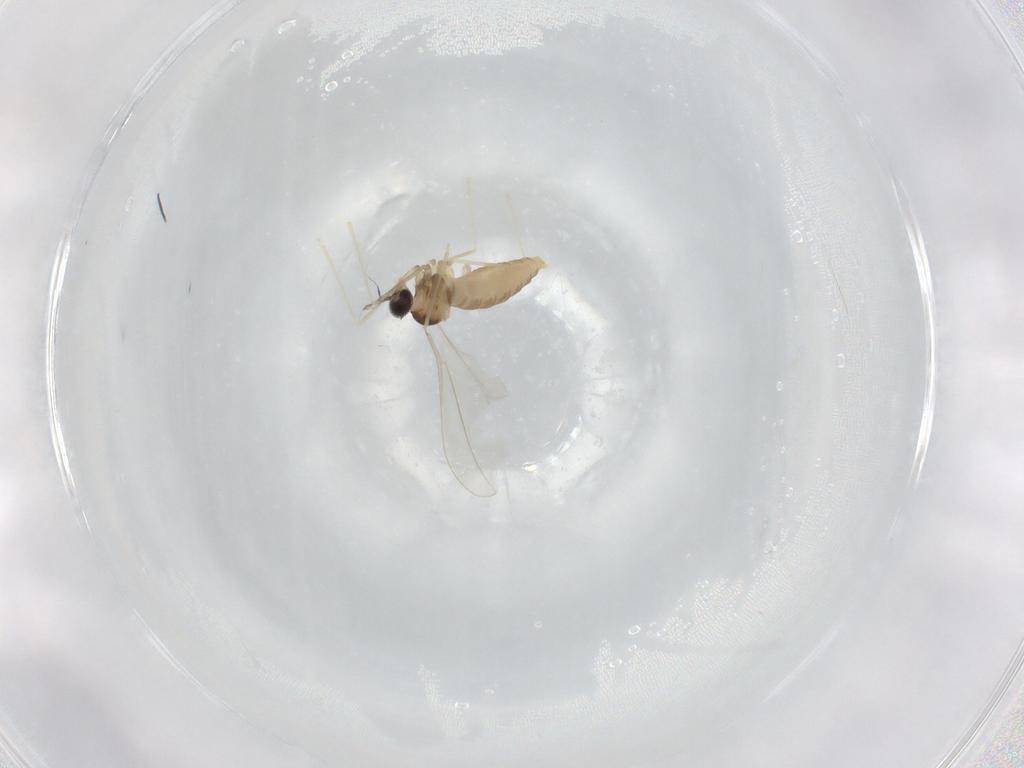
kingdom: Animalia
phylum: Arthropoda
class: Insecta
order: Diptera
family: Cecidomyiidae
